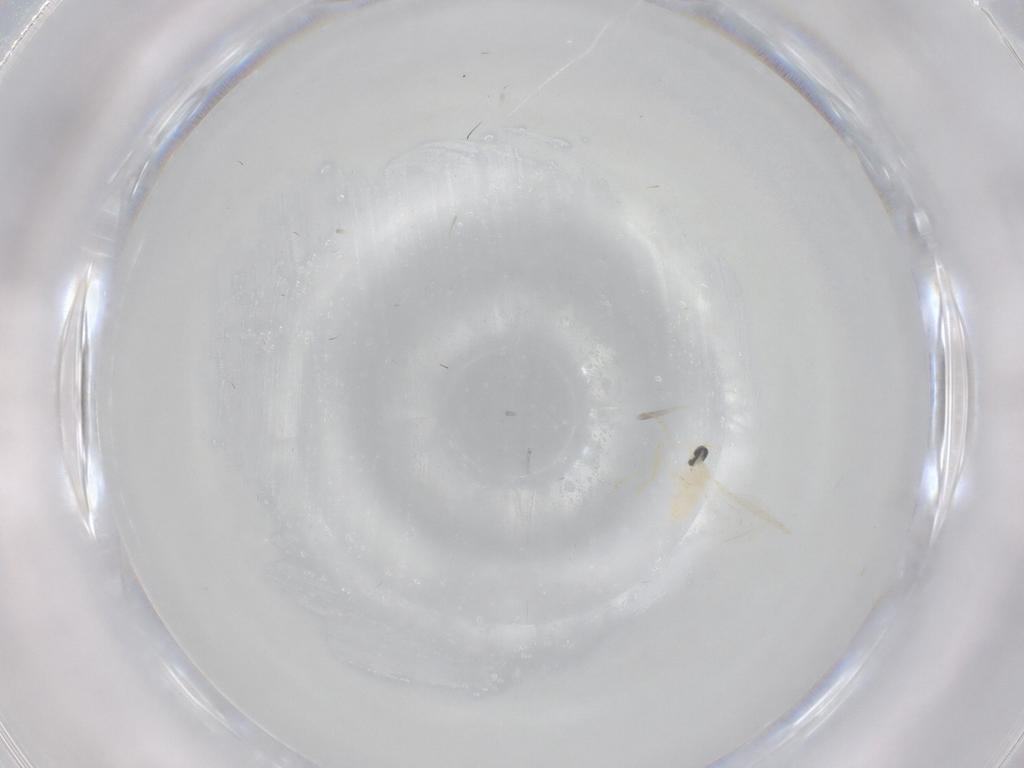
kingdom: Animalia
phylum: Arthropoda
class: Insecta
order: Diptera
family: Cecidomyiidae
